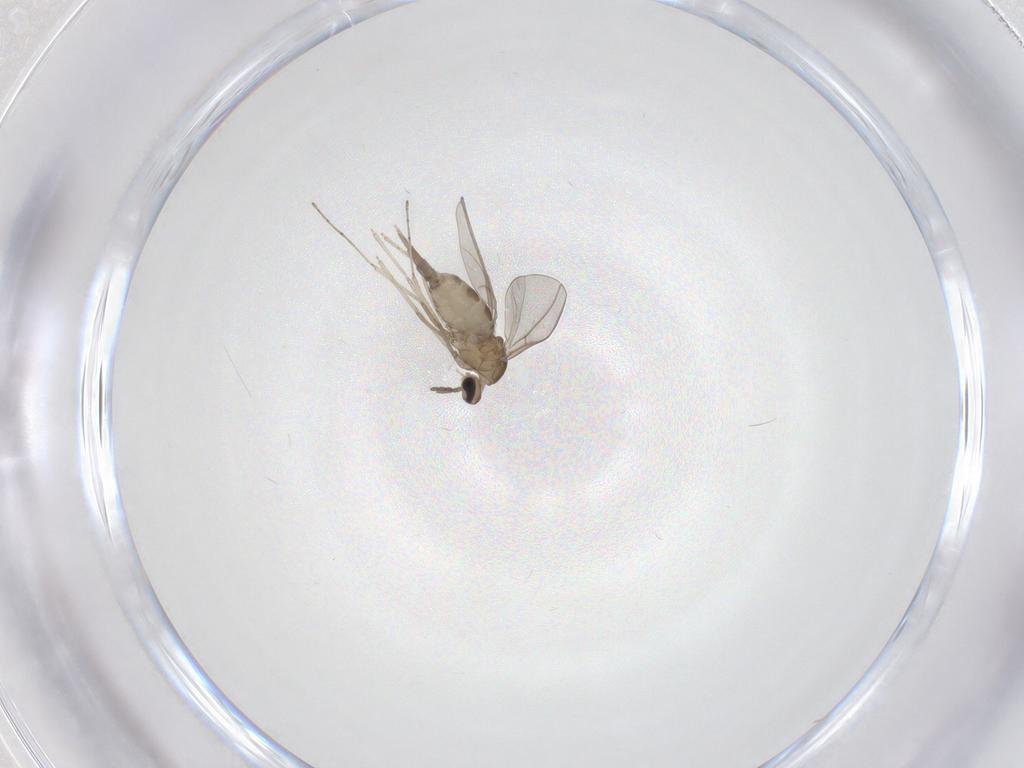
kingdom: Animalia
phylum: Arthropoda
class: Insecta
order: Diptera
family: Cecidomyiidae
